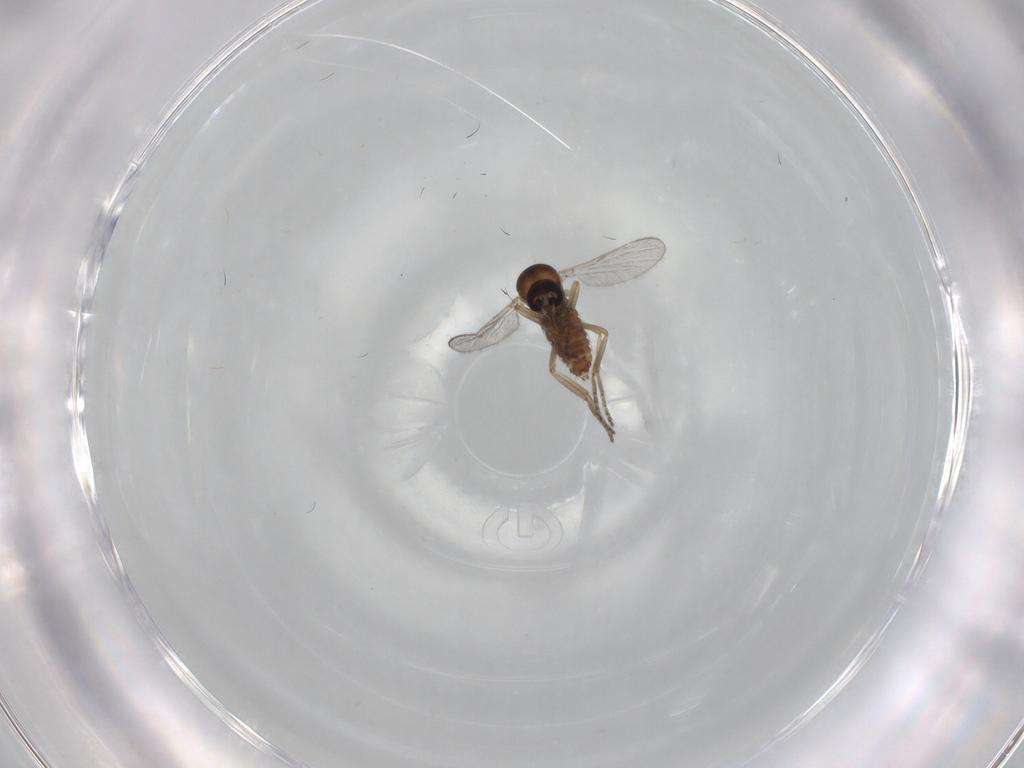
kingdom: Animalia
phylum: Arthropoda
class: Insecta
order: Diptera
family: Ceratopogonidae
